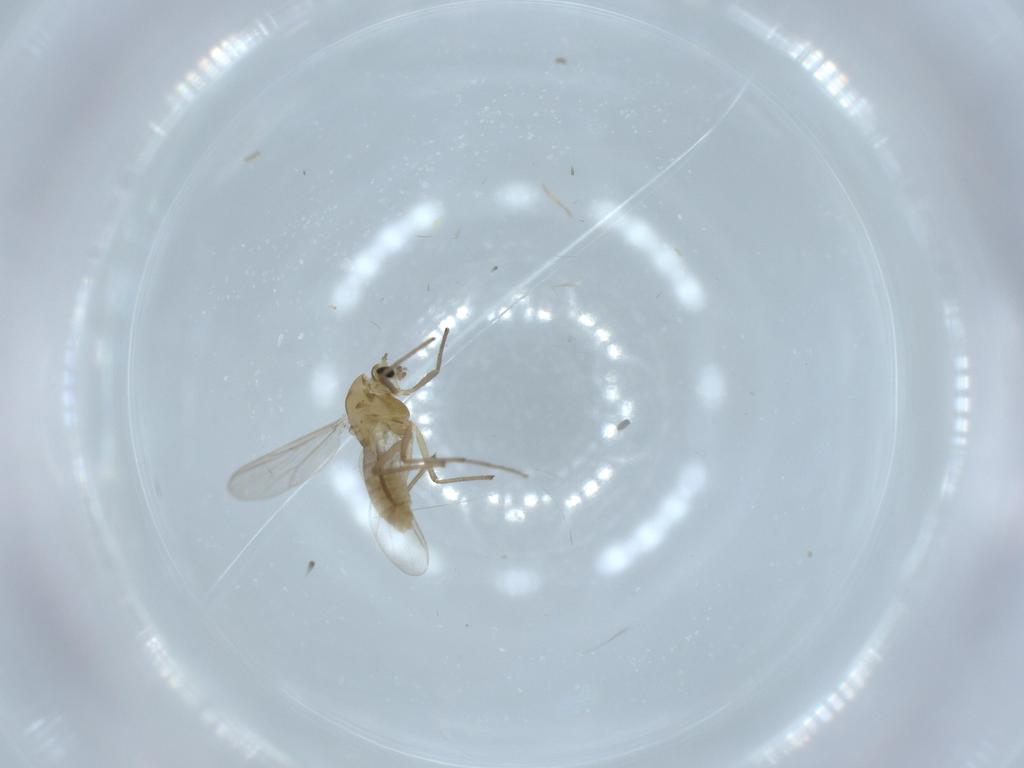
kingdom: Animalia
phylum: Arthropoda
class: Insecta
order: Diptera
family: Chironomidae
